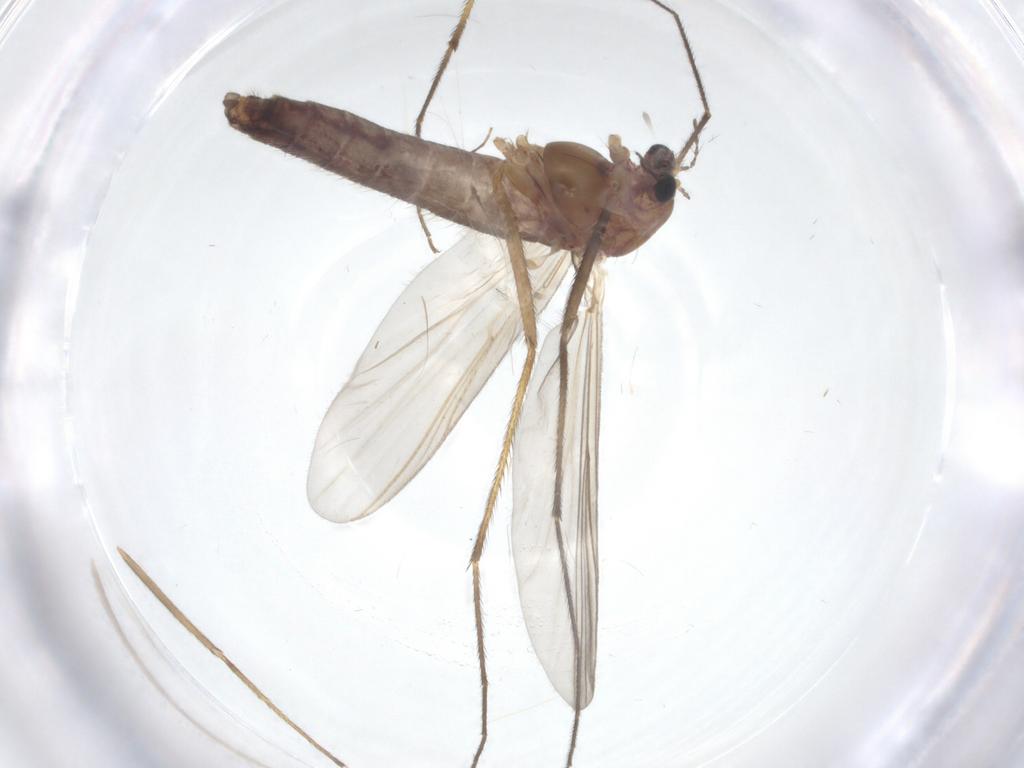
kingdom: Animalia
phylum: Arthropoda
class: Insecta
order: Diptera
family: Chironomidae
